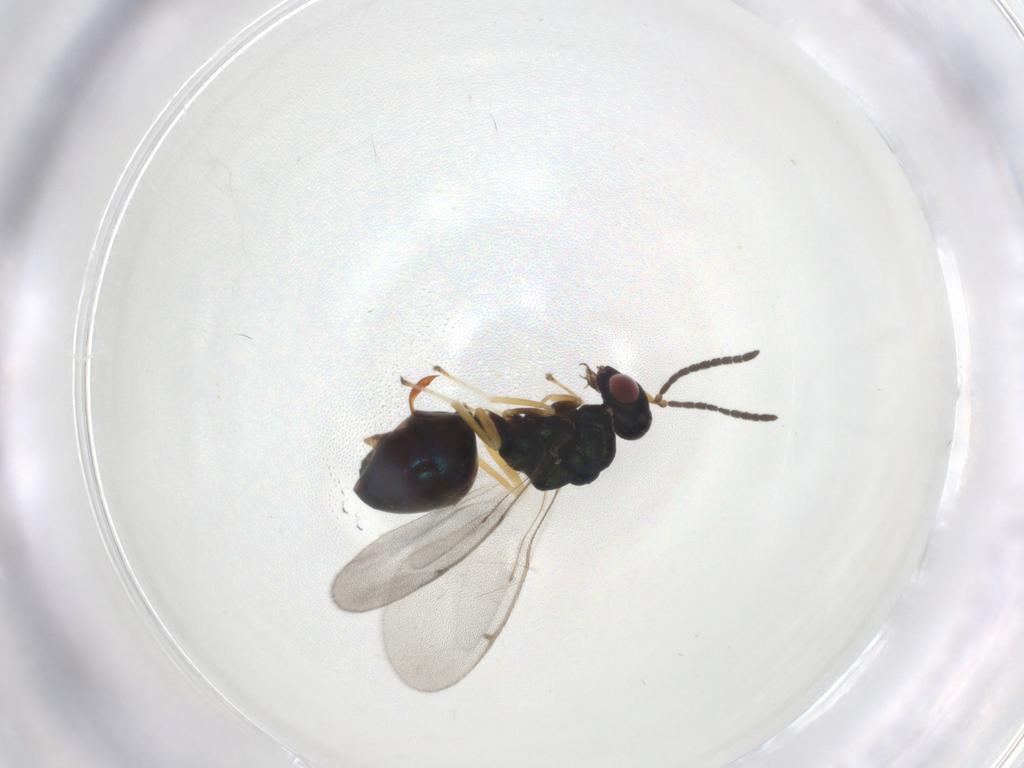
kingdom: Animalia
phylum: Arthropoda
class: Insecta
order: Hymenoptera
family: Eucharitidae
